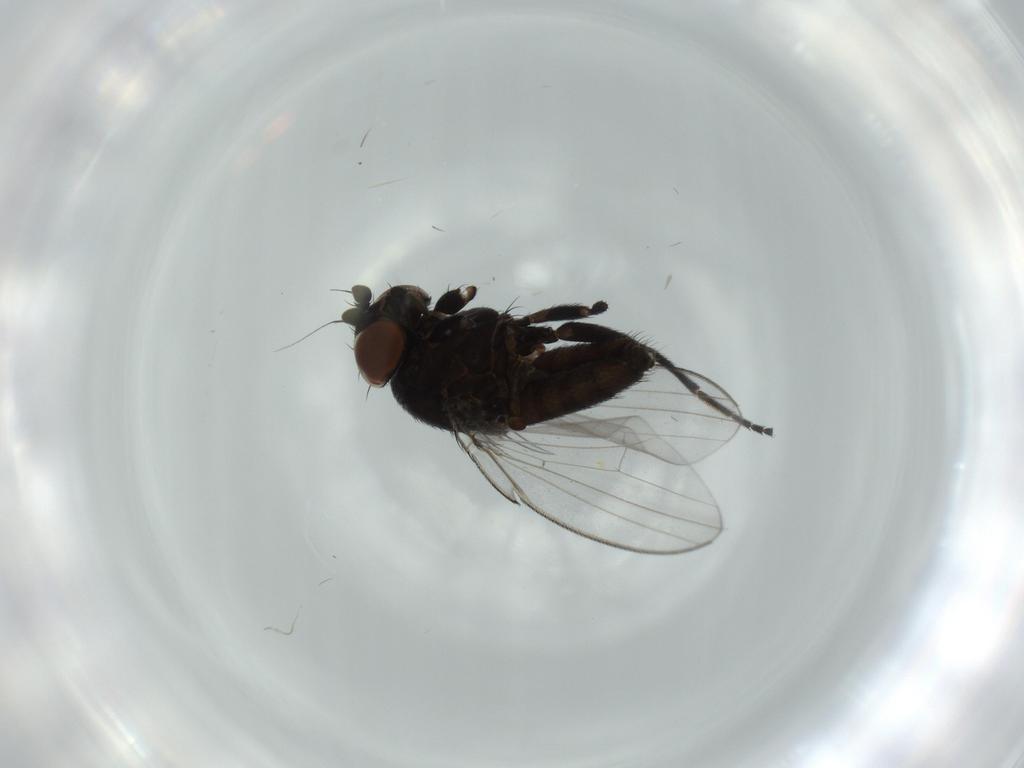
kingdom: Animalia
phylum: Arthropoda
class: Insecta
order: Diptera
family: Milichiidae
